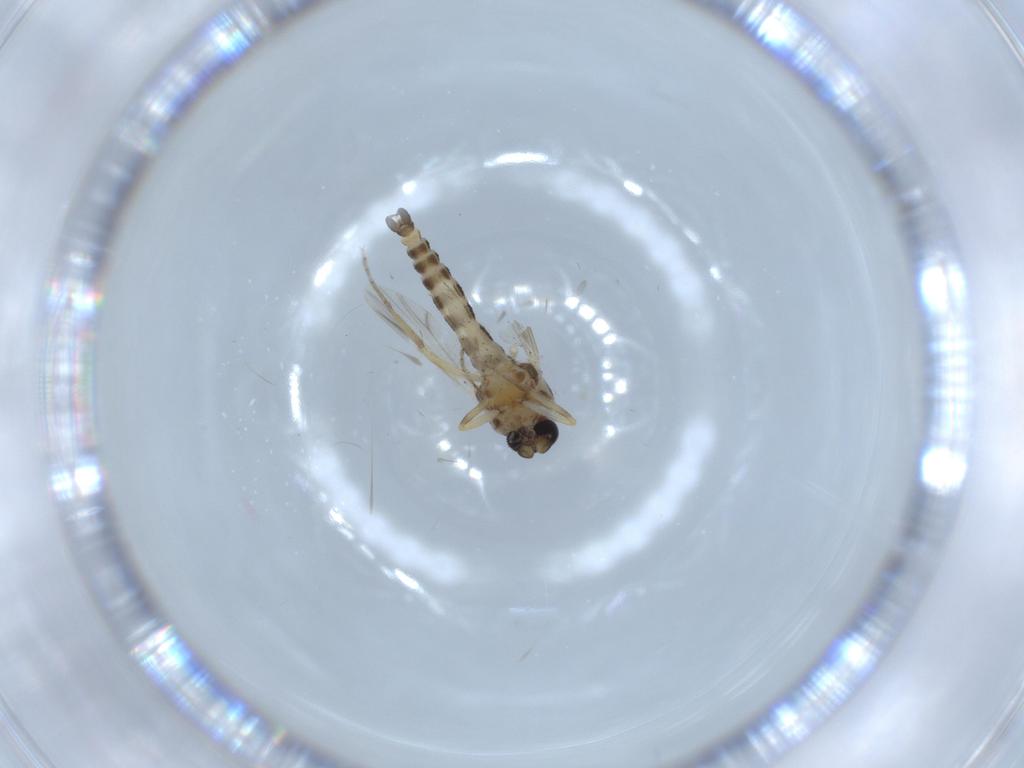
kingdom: Animalia
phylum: Arthropoda
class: Insecta
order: Diptera
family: Ceratopogonidae
